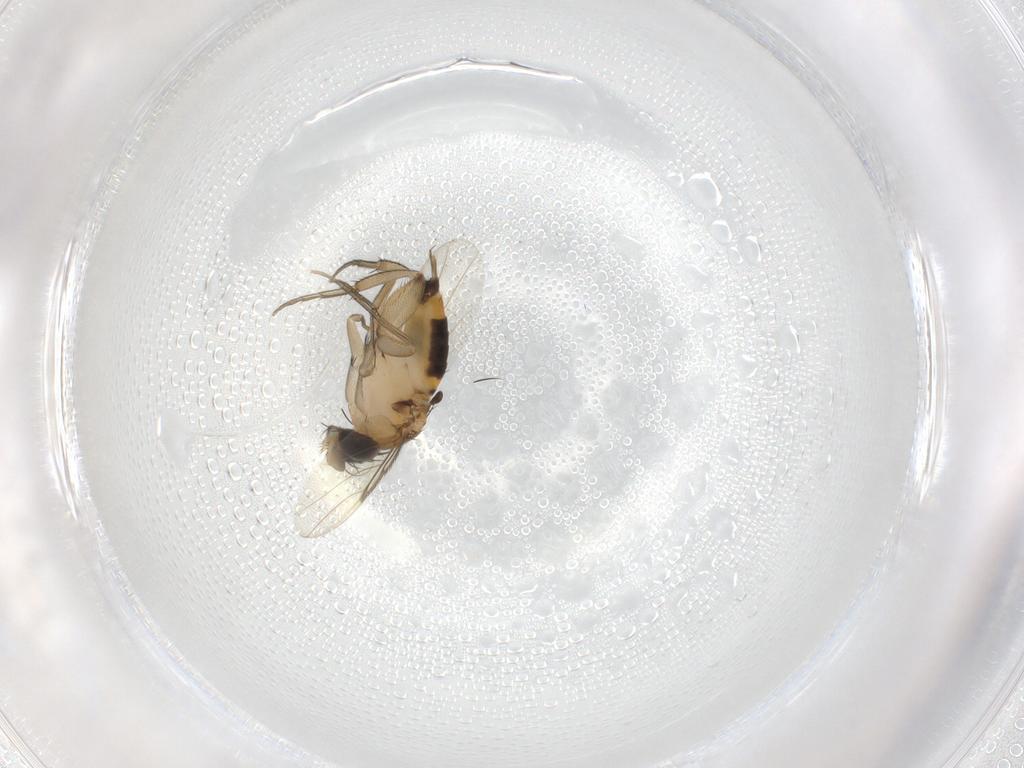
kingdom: Animalia
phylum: Arthropoda
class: Insecta
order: Diptera
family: Phoridae
